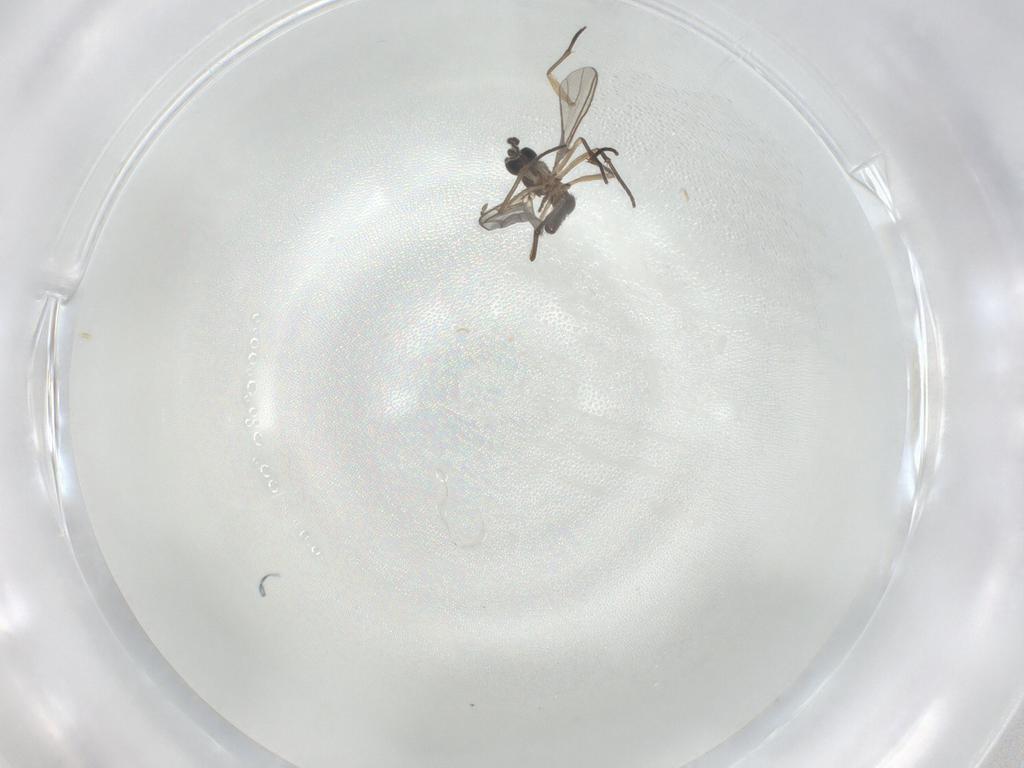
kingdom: Animalia
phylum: Arthropoda
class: Insecta
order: Diptera
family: Sciaridae
